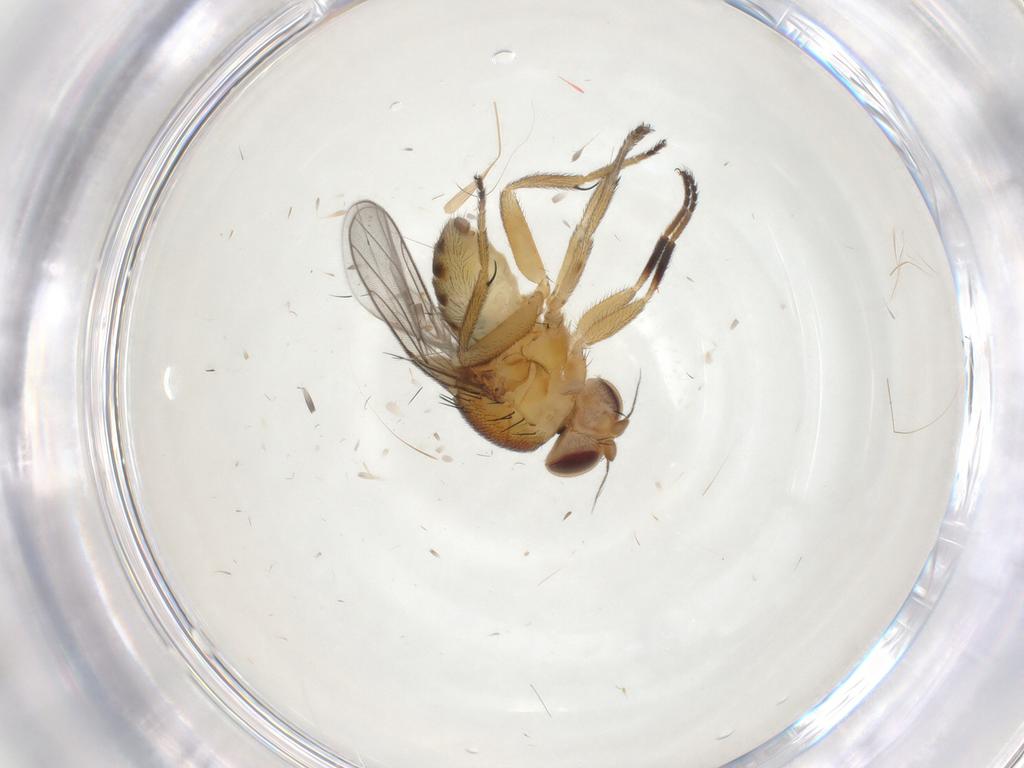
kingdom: Animalia
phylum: Arthropoda
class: Insecta
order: Diptera
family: Chloropidae
